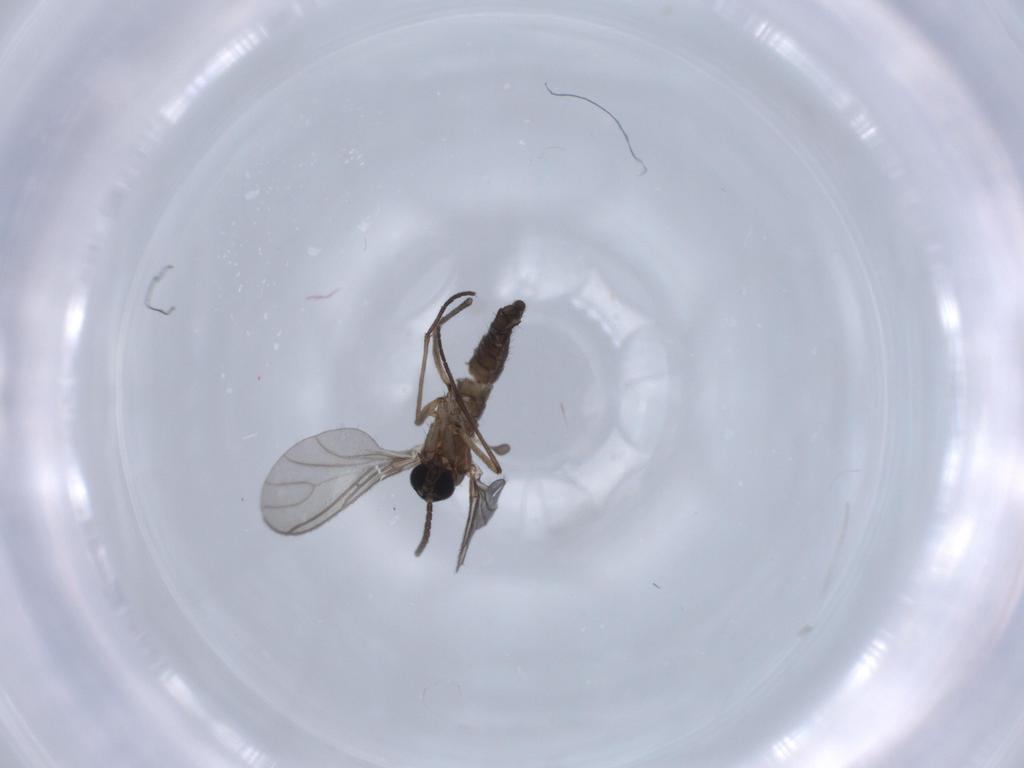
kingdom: Animalia
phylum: Arthropoda
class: Insecta
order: Diptera
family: Sciaridae
